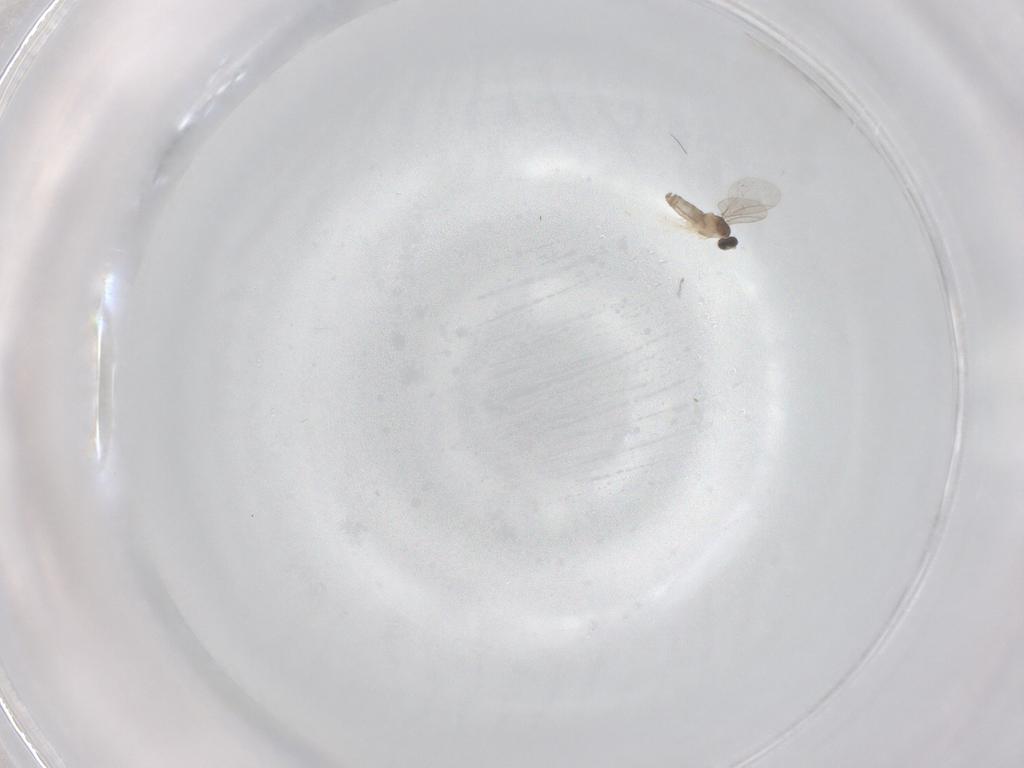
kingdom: Animalia
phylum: Arthropoda
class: Insecta
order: Diptera
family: Cecidomyiidae
